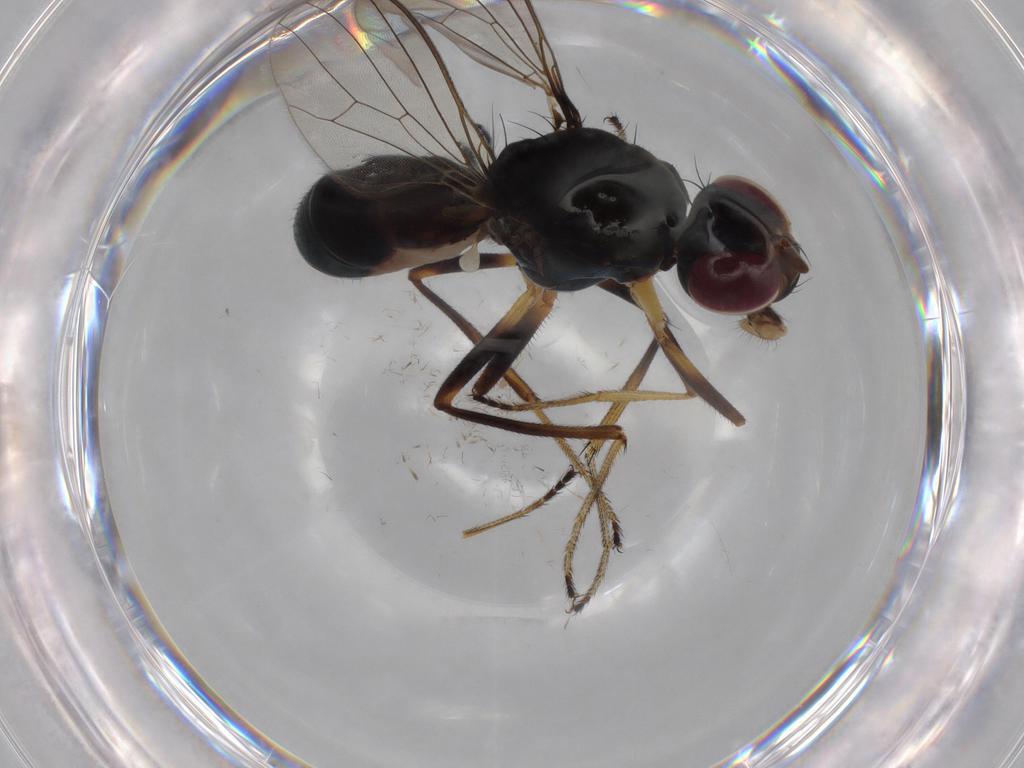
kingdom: Animalia
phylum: Arthropoda
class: Insecta
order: Diptera
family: Sepsidae
